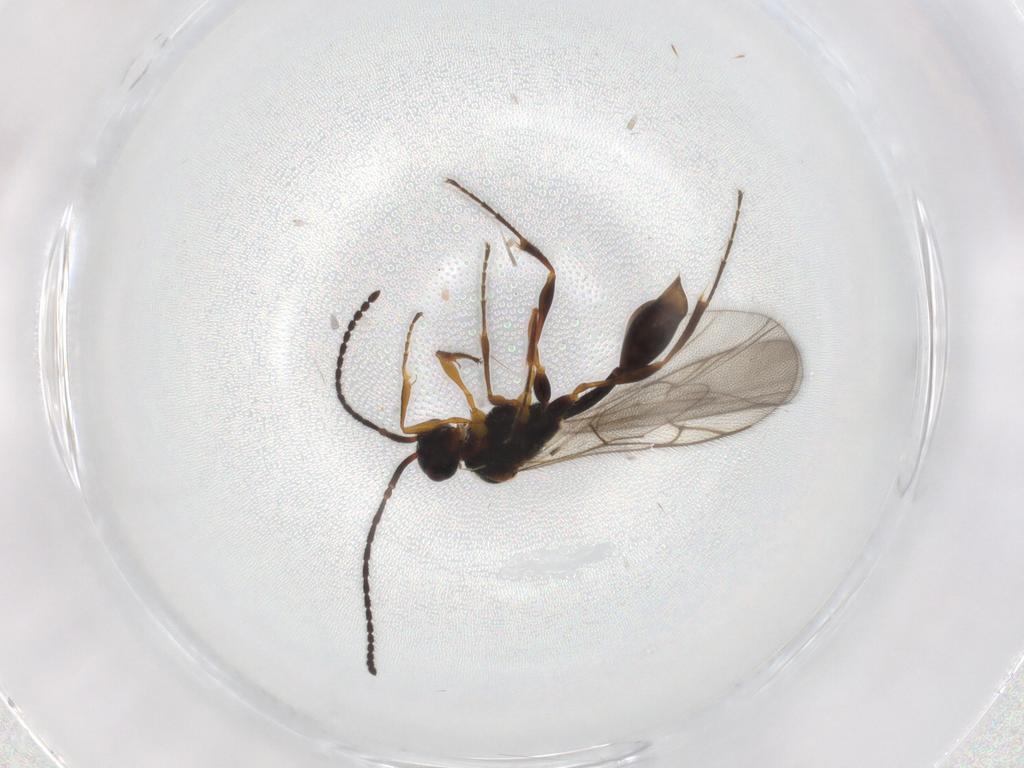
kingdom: Animalia
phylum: Arthropoda
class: Insecta
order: Hymenoptera
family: Diapriidae
